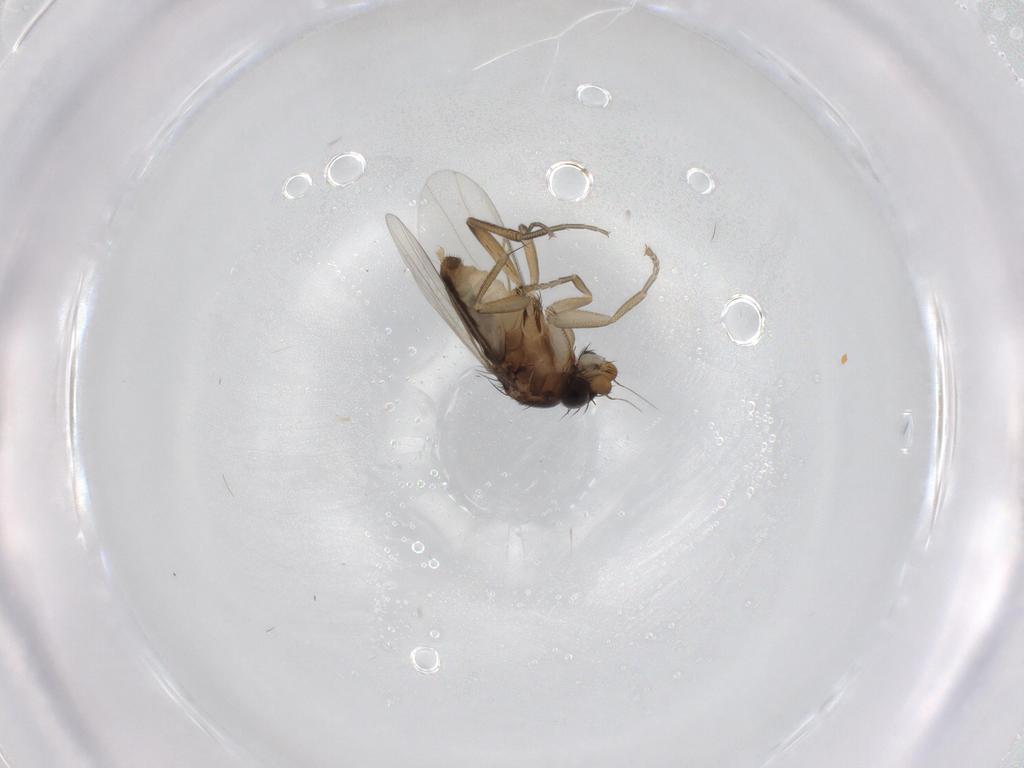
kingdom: Animalia
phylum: Arthropoda
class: Insecta
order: Diptera
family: Phoridae
